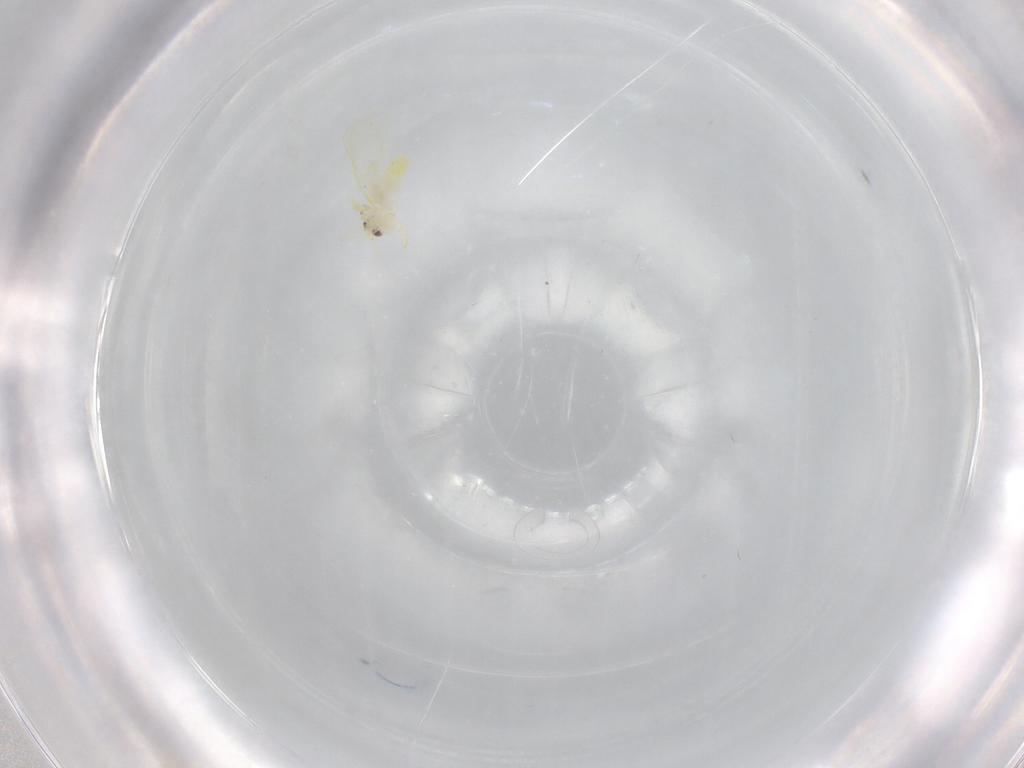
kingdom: Animalia
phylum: Arthropoda
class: Insecta
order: Hemiptera
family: Aleyrodidae
